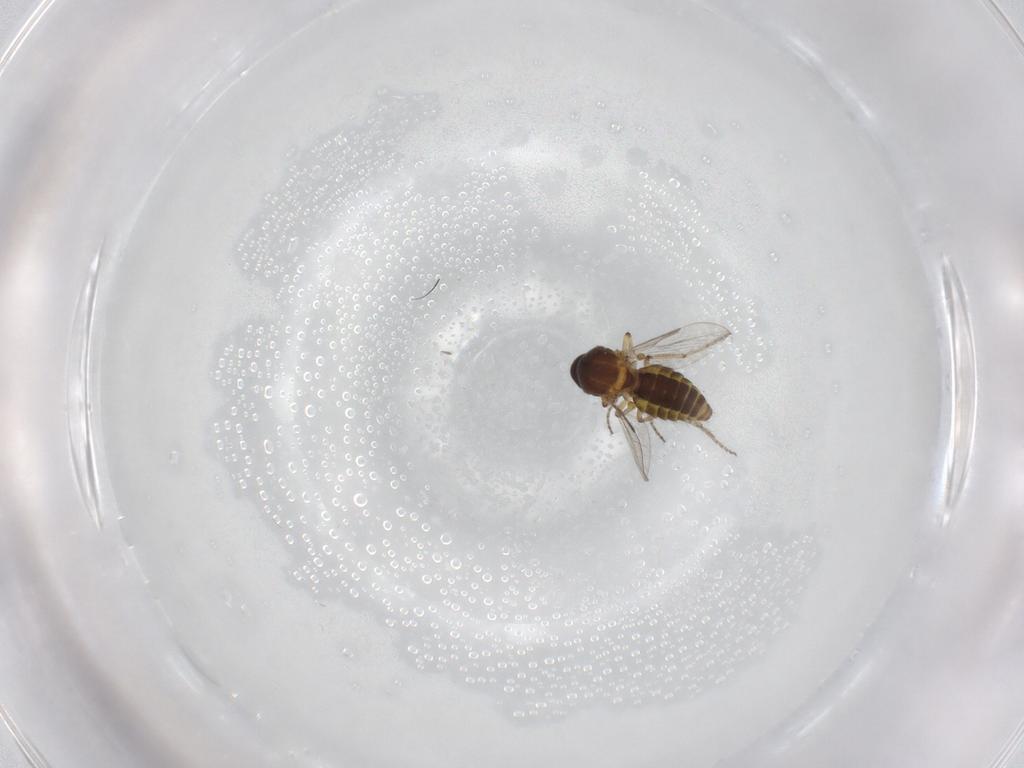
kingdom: Animalia
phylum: Arthropoda
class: Insecta
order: Diptera
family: Ceratopogonidae
